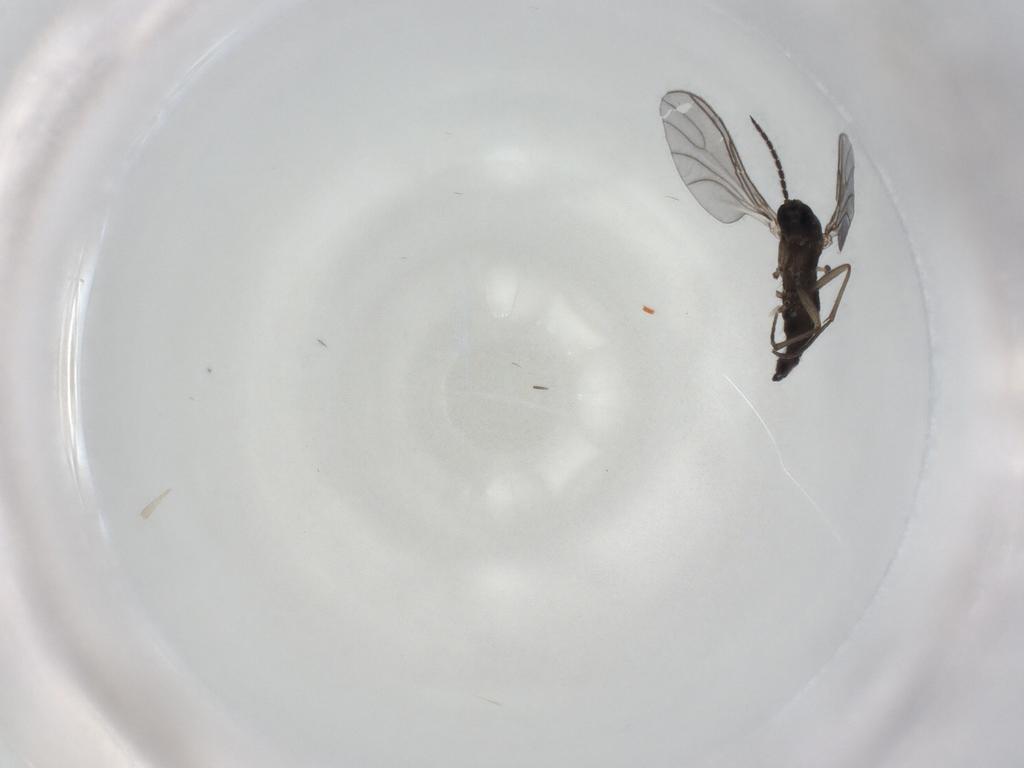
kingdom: Animalia
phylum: Arthropoda
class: Insecta
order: Diptera
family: Sciaridae
